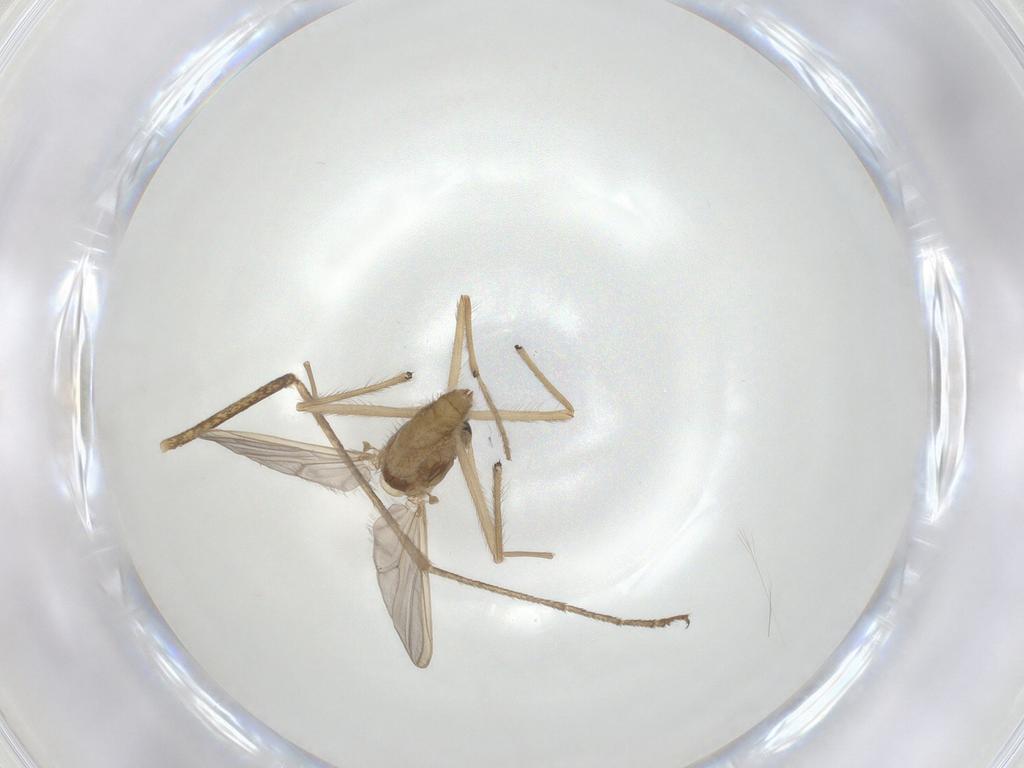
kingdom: Animalia
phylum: Arthropoda
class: Insecta
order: Diptera
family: Chironomidae
